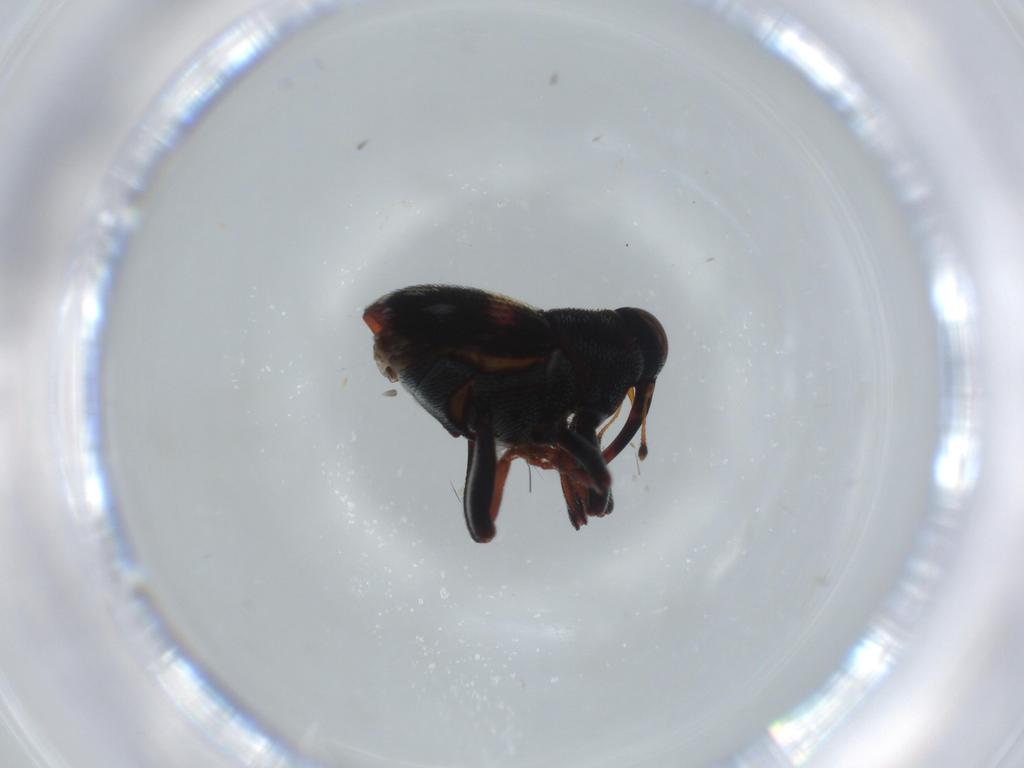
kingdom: Animalia
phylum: Arthropoda
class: Insecta
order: Coleoptera
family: Curculionidae
